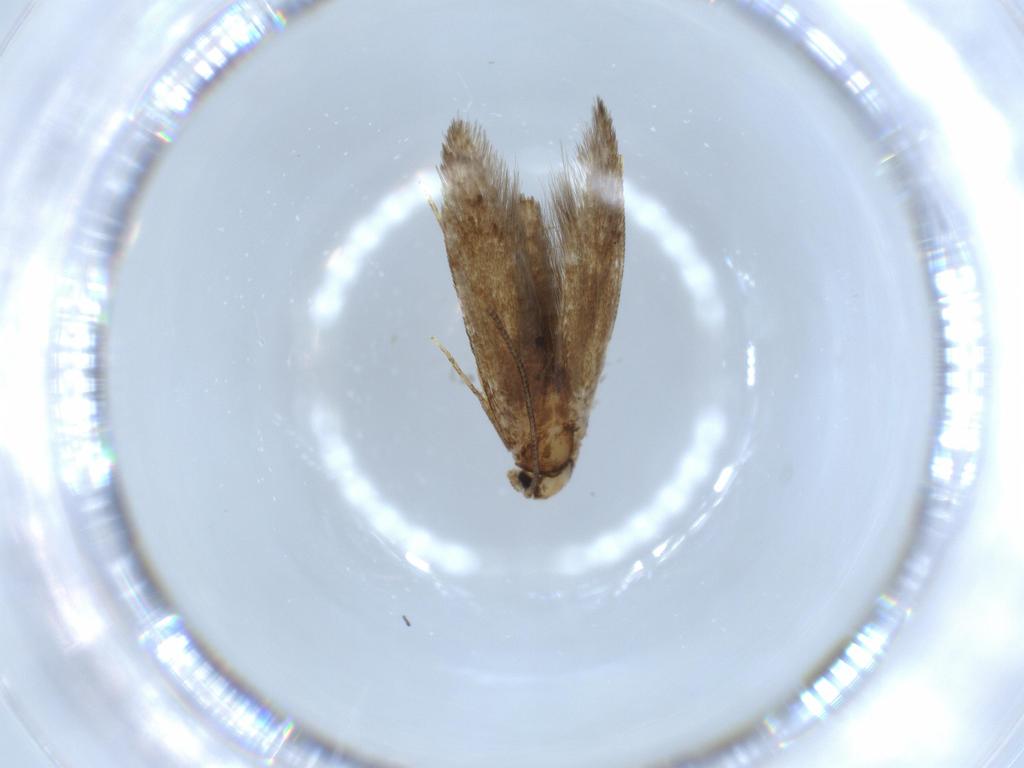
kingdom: Animalia
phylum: Arthropoda
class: Insecta
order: Lepidoptera
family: Tineidae
